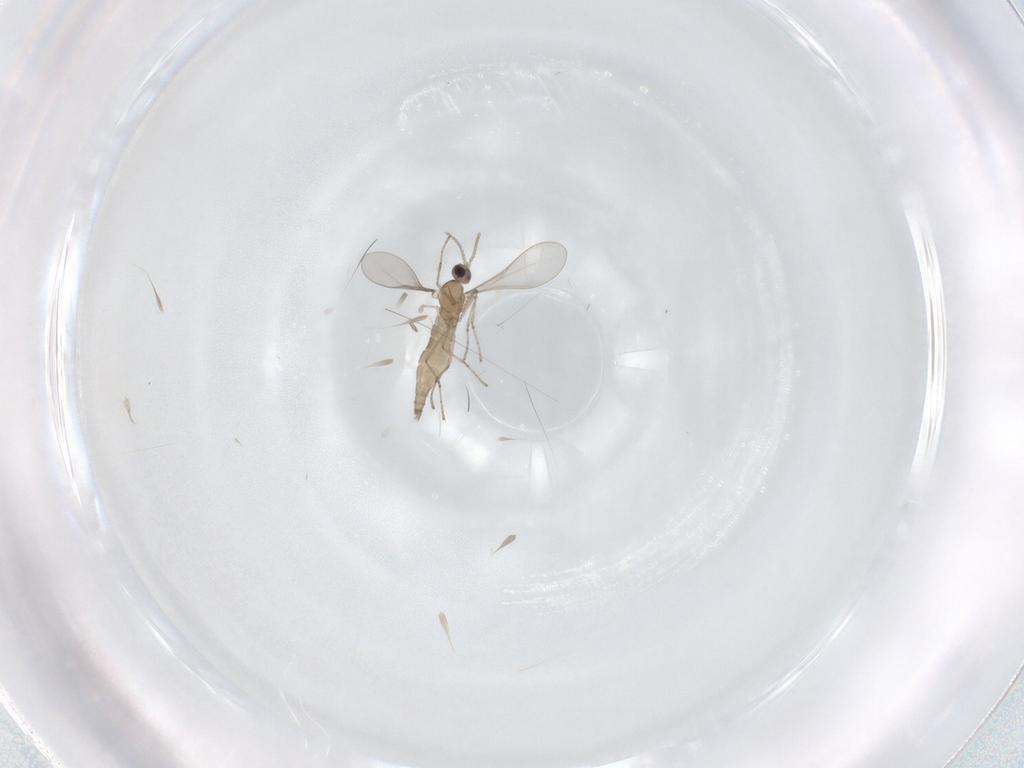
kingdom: Animalia
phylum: Arthropoda
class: Insecta
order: Diptera
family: Cecidomyiidae
